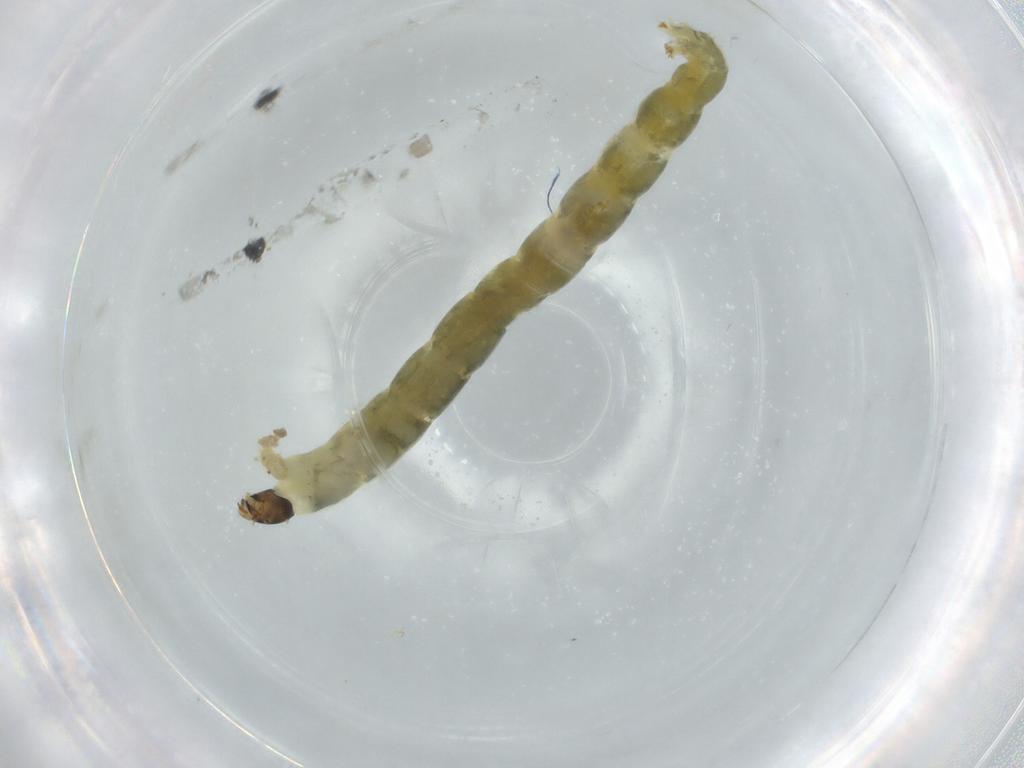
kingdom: Animalia
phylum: Arthropoda
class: Insecta
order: Diptera
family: Chironomidae
